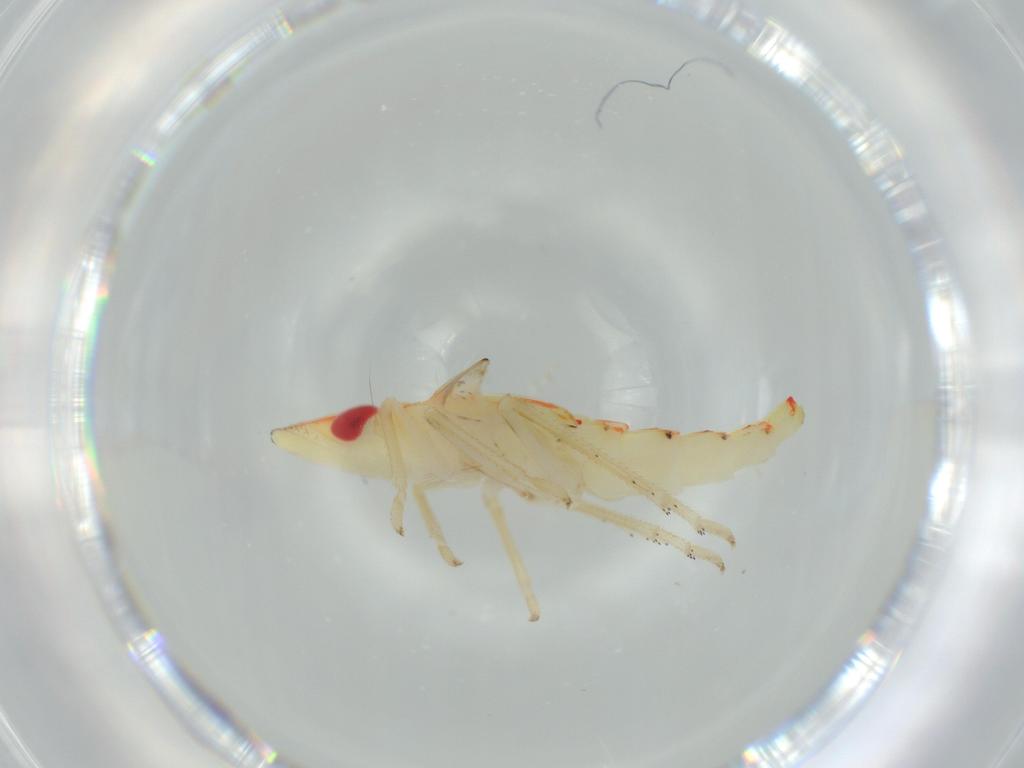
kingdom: Animalia
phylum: Arthropoda
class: Insecta
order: Hemiptera
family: Tropiduchidae
